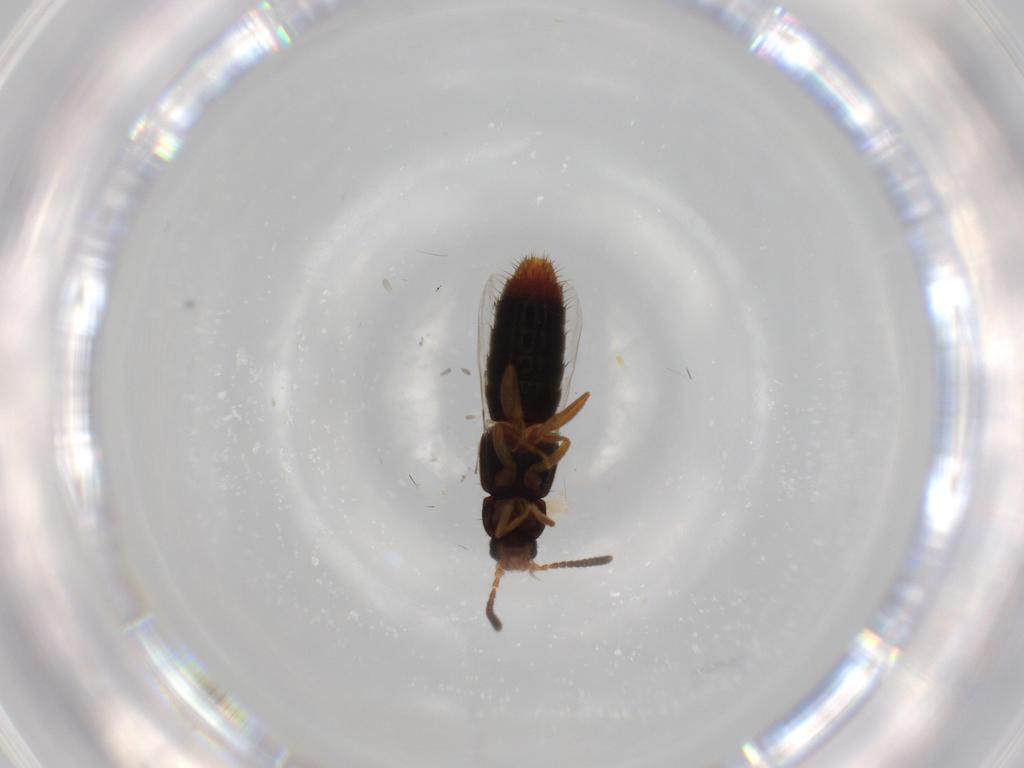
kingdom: Animalia
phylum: Arthropoda
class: Insecta
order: Coleoptera
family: Staphylinidae
